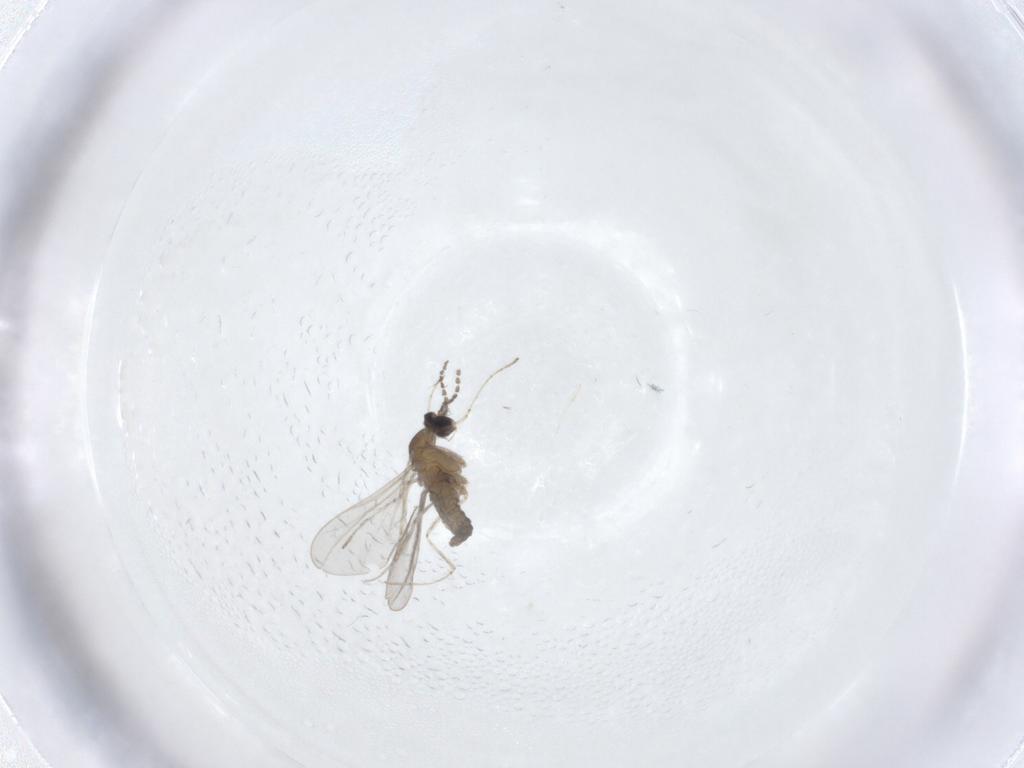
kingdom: Animalia
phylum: Arthropoda
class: Insecta
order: Diptera
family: Cecidomyiidae
